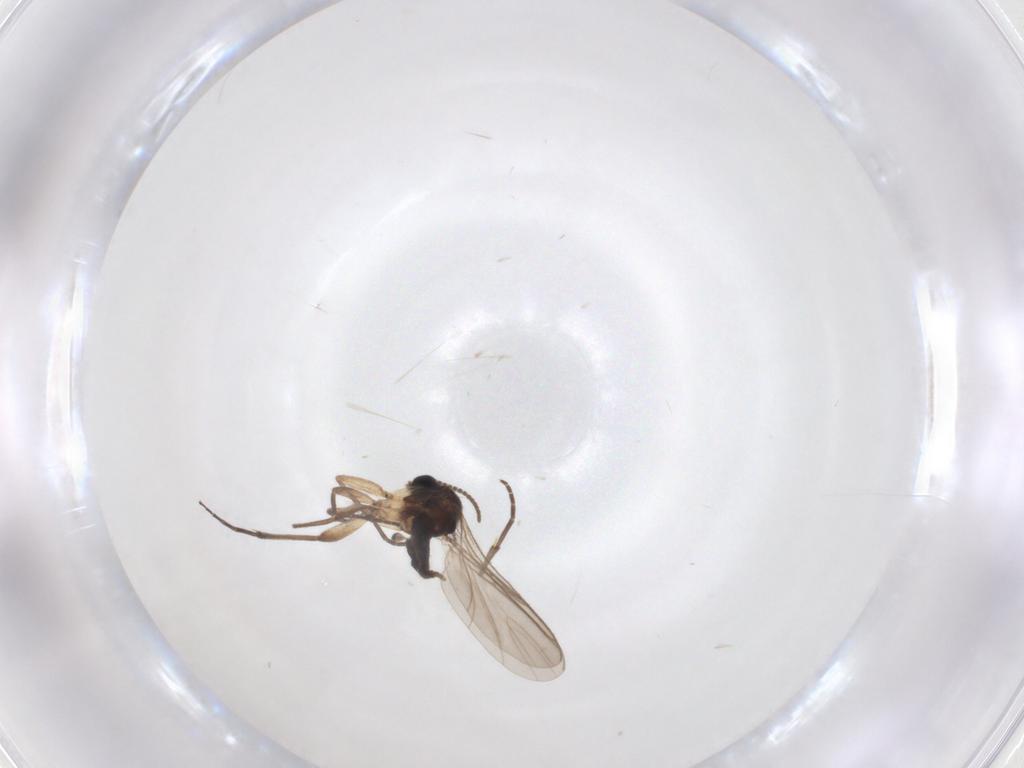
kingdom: Animalia
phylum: Arthropoda
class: Insecta
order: Diptera
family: Sciaridae
